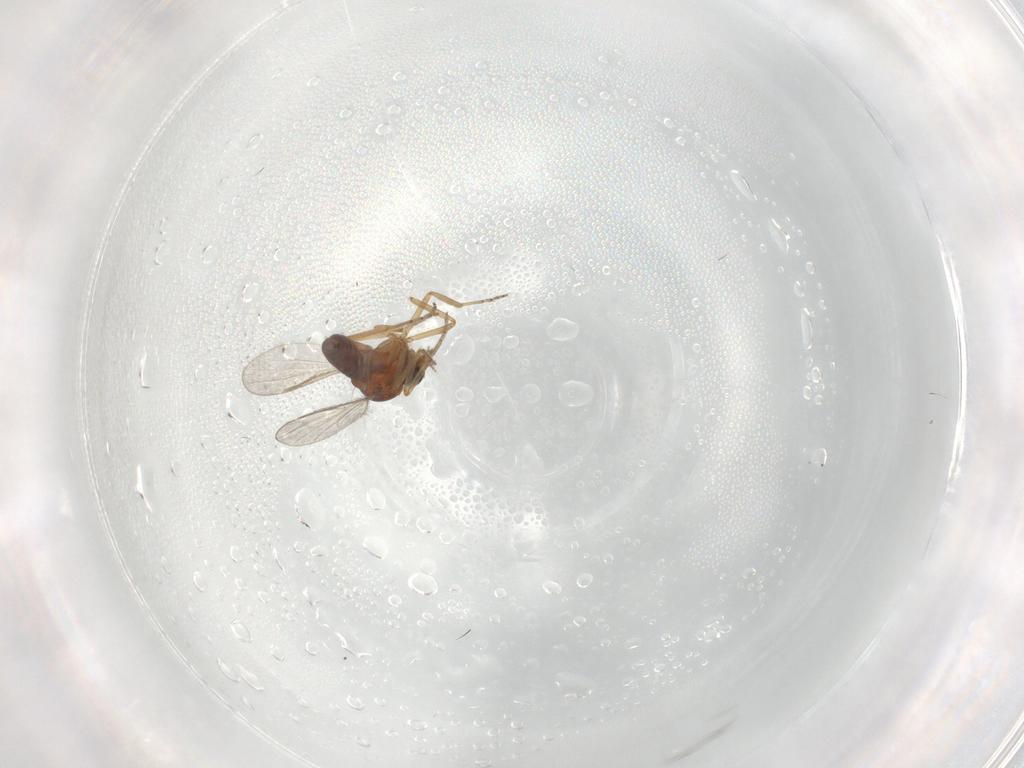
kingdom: Animalia
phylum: Arthropoda
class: Insecta
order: Diptera
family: Ceratopogonidae
